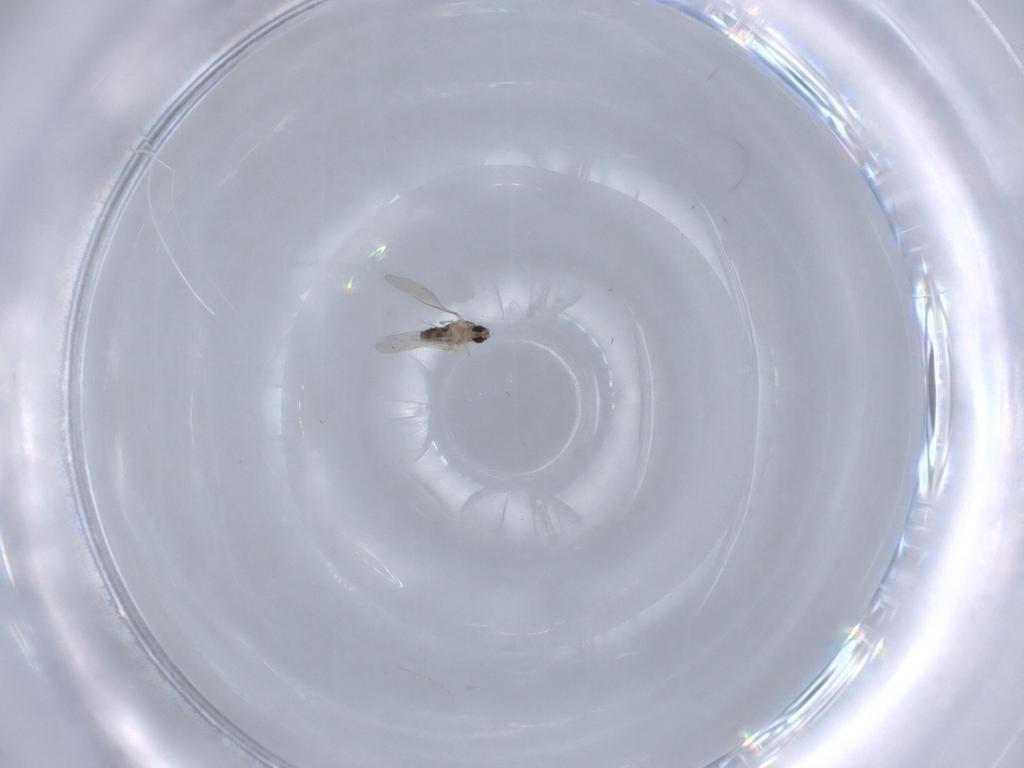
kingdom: Animalia
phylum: Arthropoda
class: Insecta
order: Diptera
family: Cecidomyiidae
